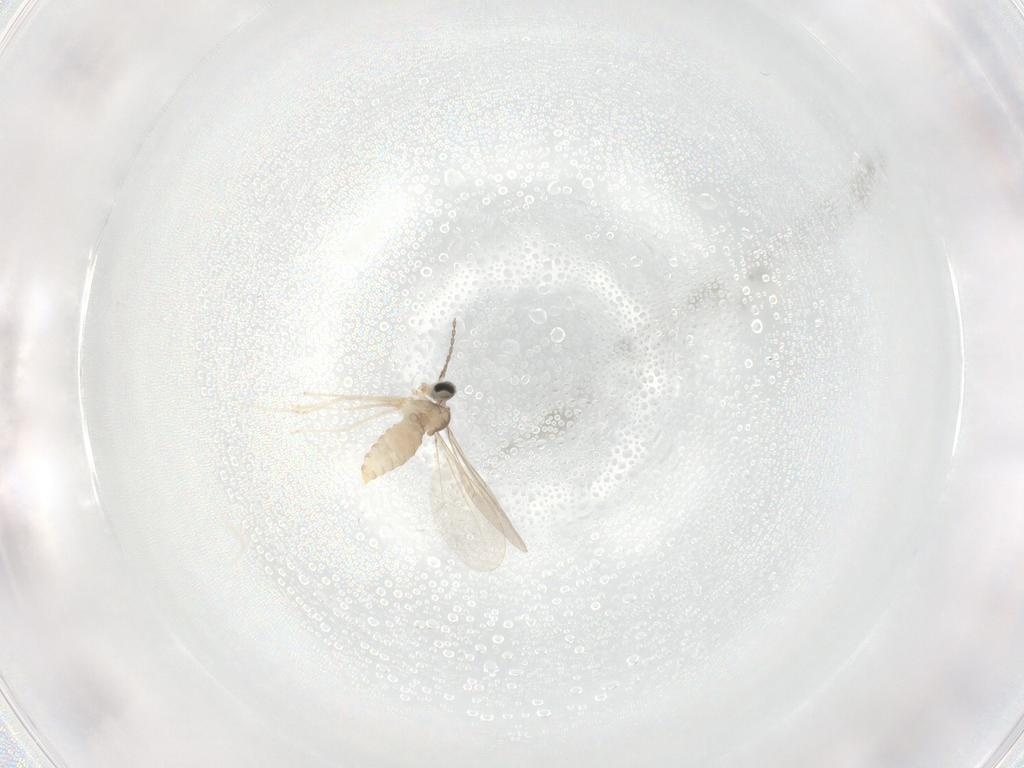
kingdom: Animalia
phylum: Arthropoda
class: Insecta
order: Diptera
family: Cecidomyiidae
